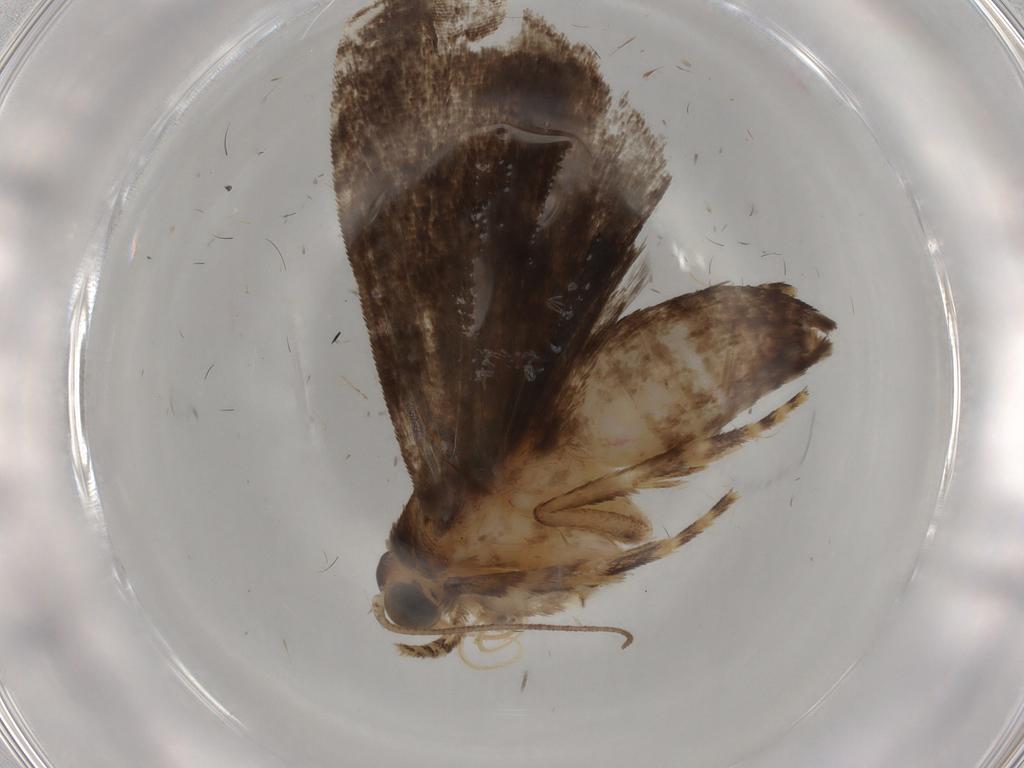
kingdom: Animalia
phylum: Arthropoda
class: Insecta
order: Lepidoptera
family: Immidae
